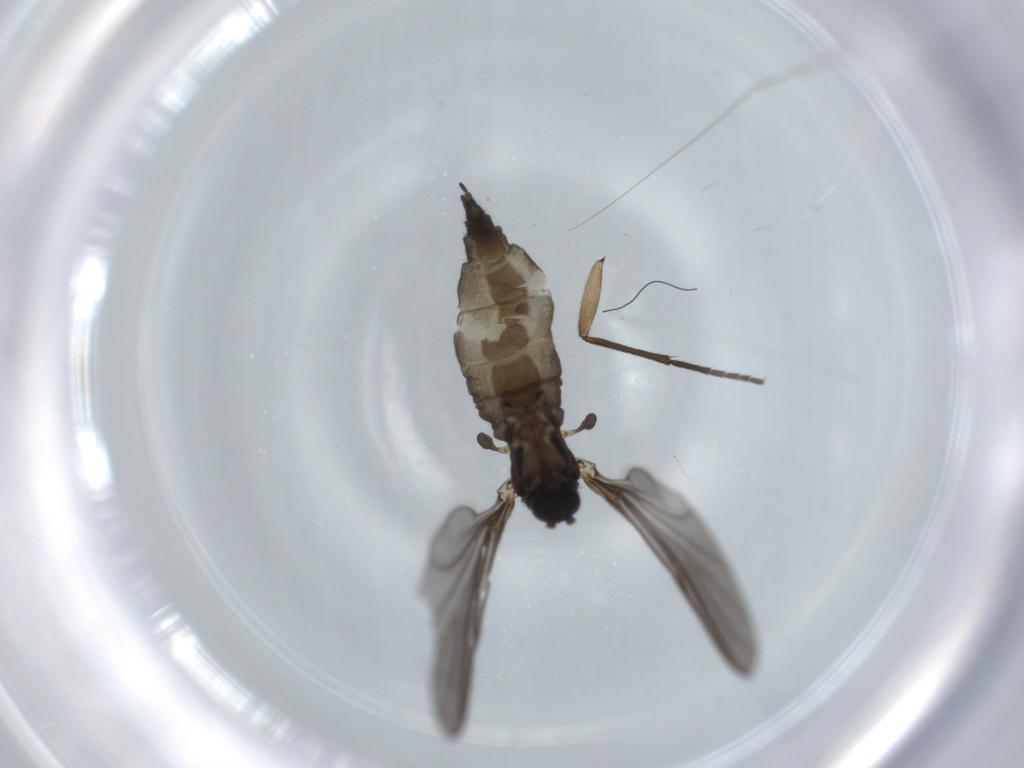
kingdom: Animalia
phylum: Arthropoda
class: Insecta
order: Diptera
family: Sciaridae
